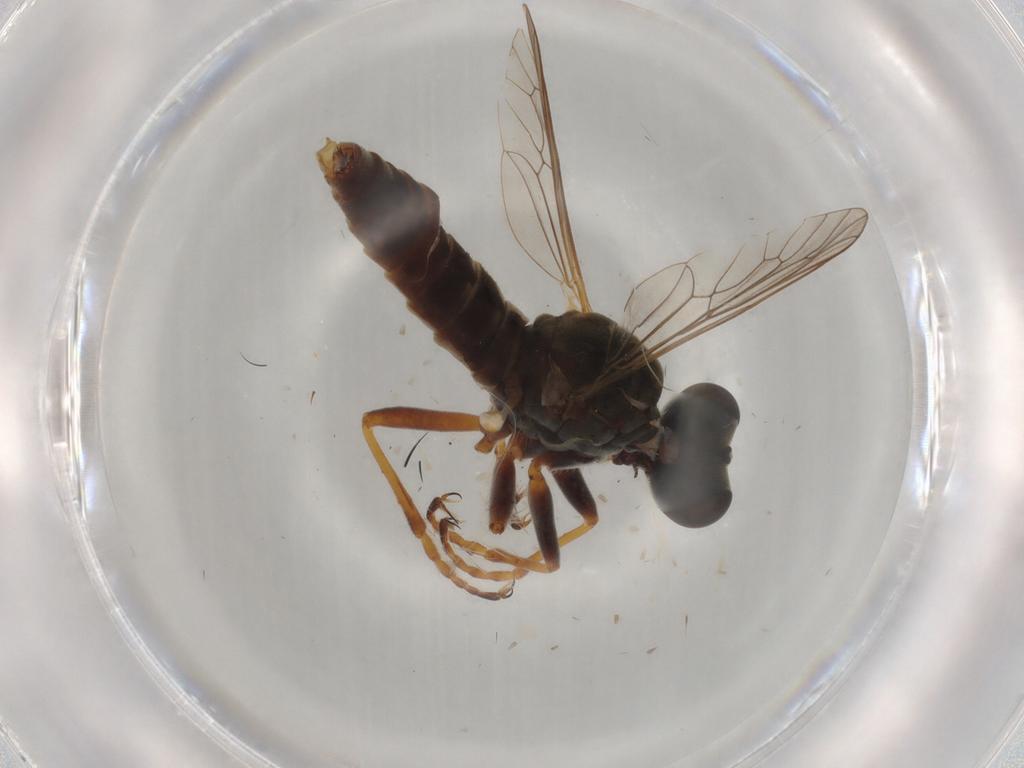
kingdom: Animalia
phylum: Arthropoda
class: Insecta
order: Diptera
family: Asilidae
